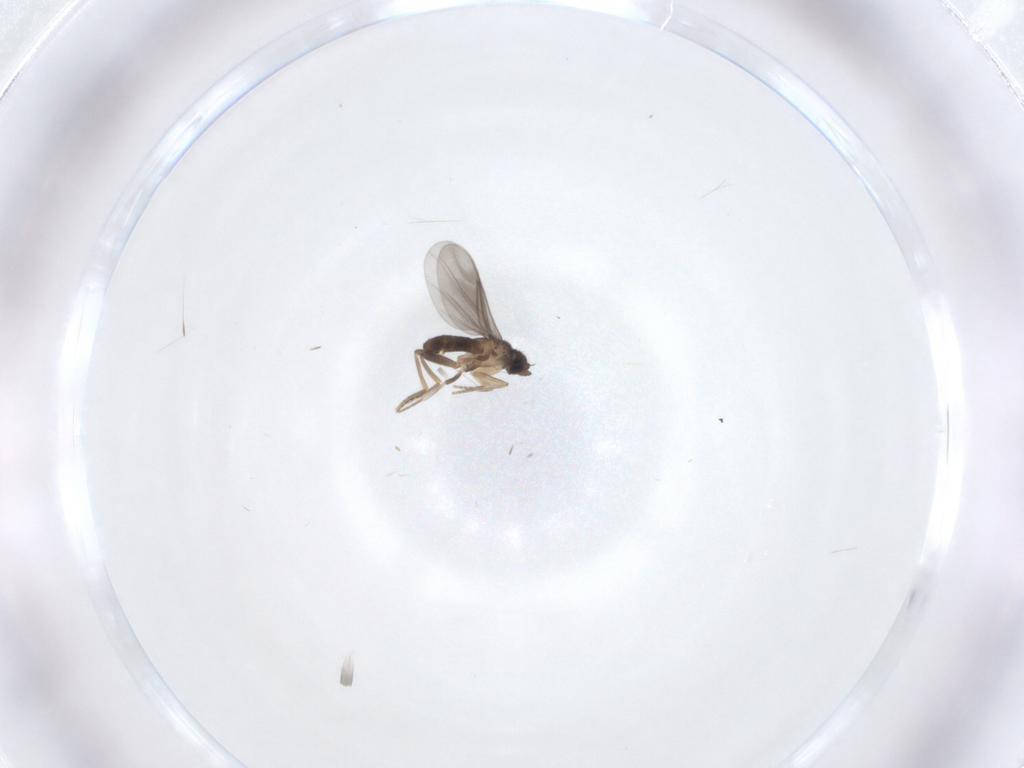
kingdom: Animalia
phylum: Arthropoda
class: Insecta
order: Diptera
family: Cecidomyiidae
